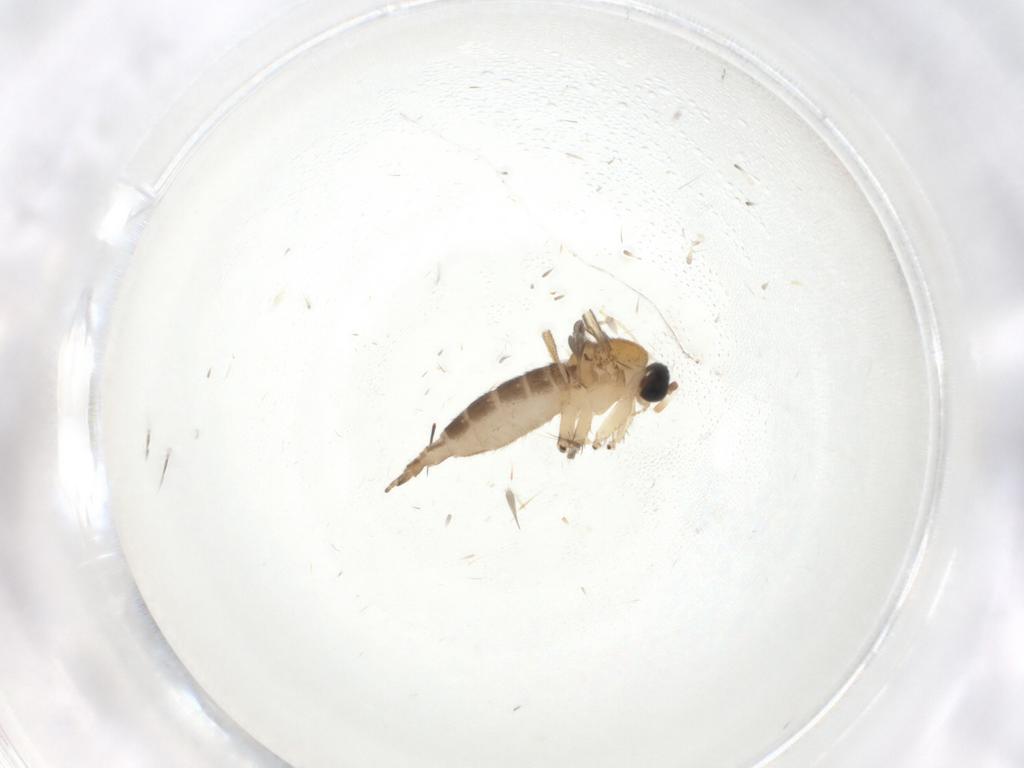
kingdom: Animalia
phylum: Arthropoda
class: Insecta
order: Diptera
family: Sciaridae
